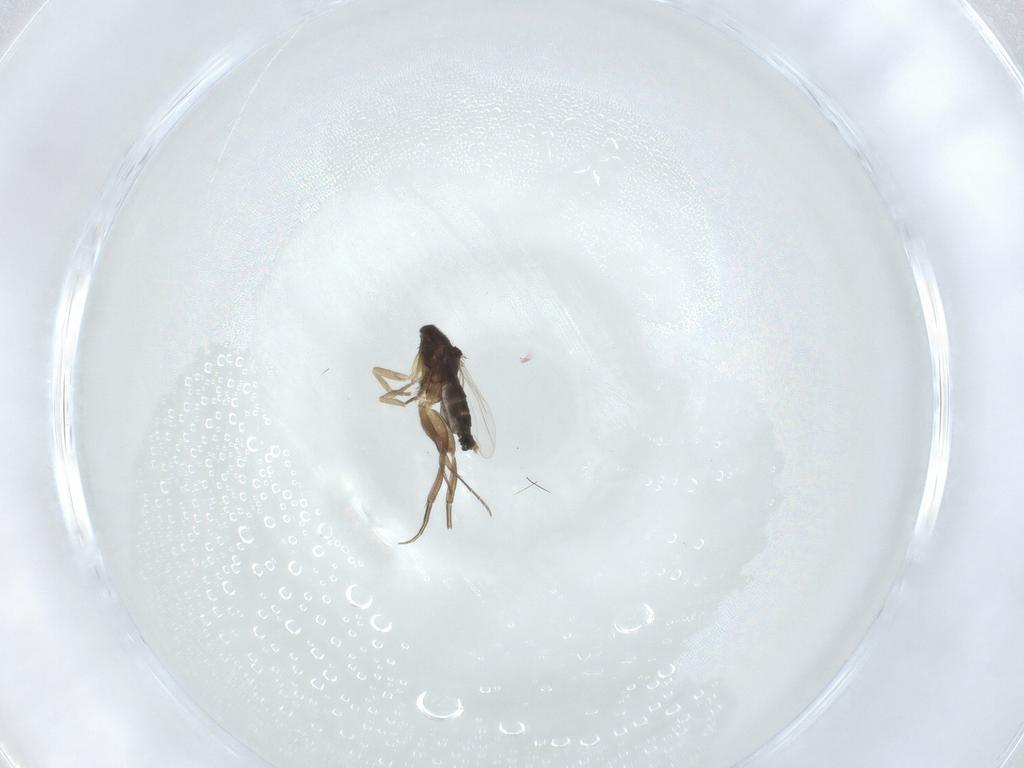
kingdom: Animalia
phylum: Arthropoda
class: Insecta
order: Diptera
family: Phoridae
